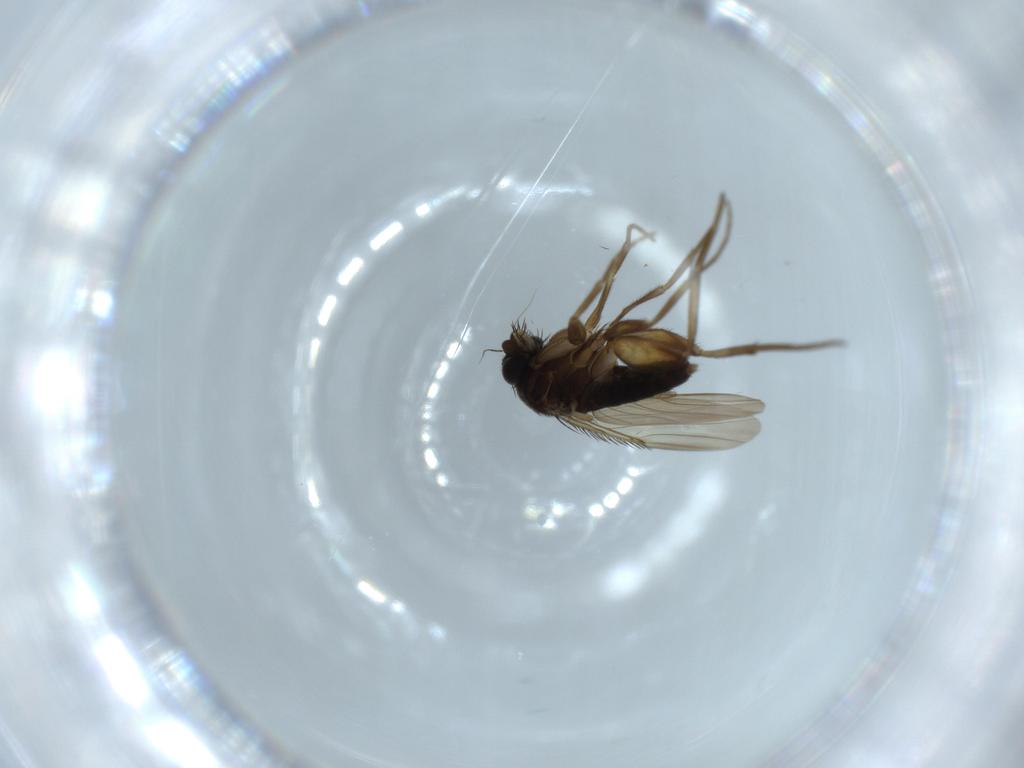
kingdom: Animalia
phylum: Arthropoda
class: Insecta
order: Diptera
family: Phoridae
